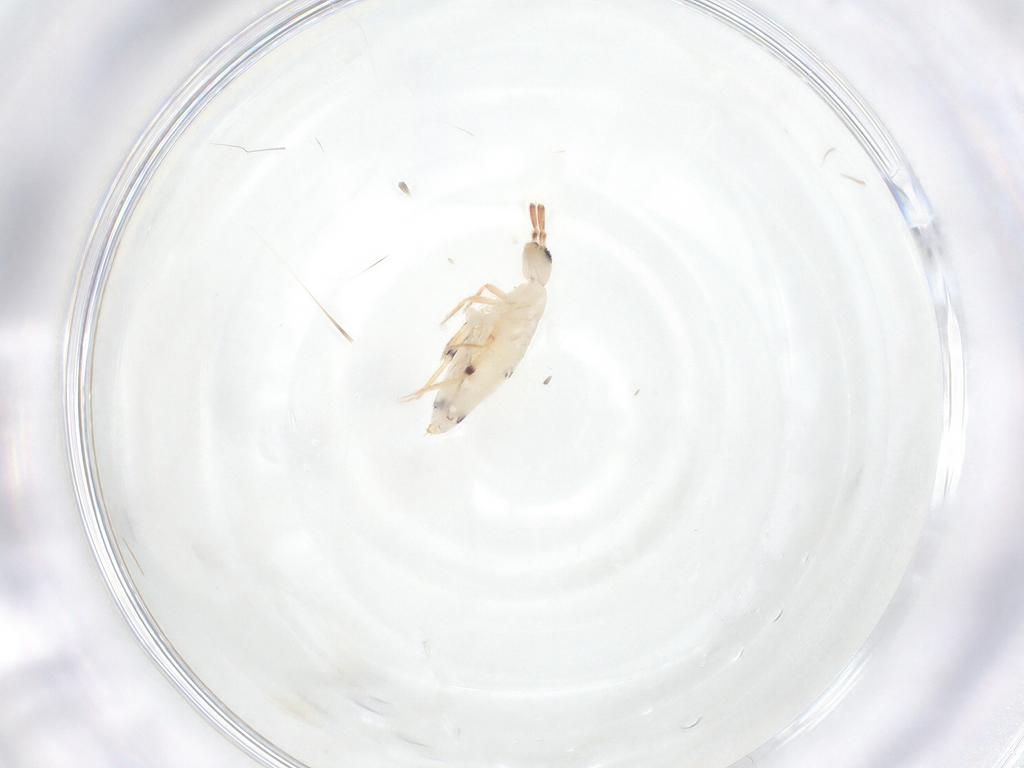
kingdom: Animalia
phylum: Arthropoda
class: Collembola
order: Entomobryomorpha
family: Entomobryidae
